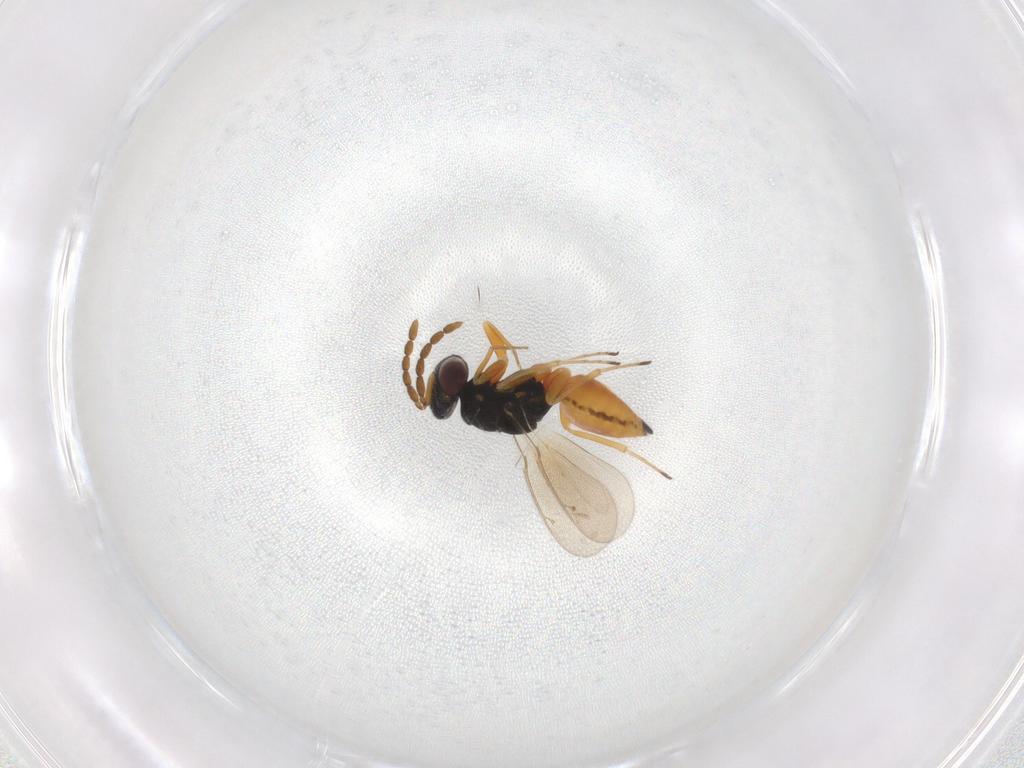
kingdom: Animalia
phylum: Arthropoda
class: Insecta
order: Hymenoptera
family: Eulophidae
